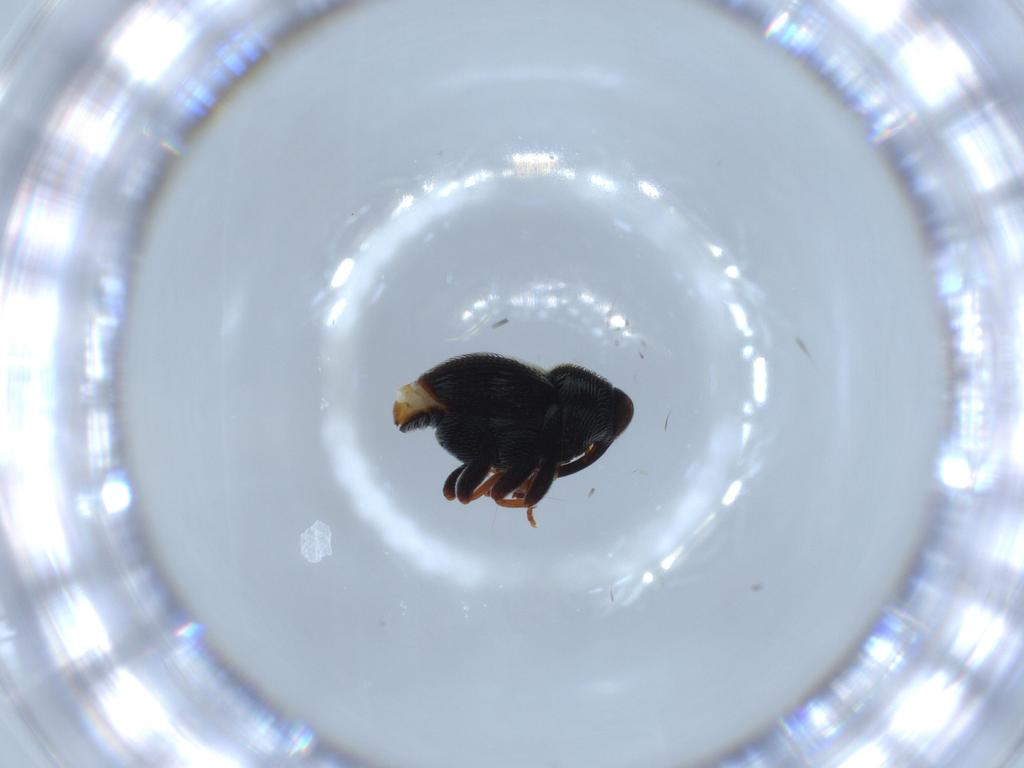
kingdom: Animalia
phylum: Arthropoda
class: Insecta
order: Coleoptera
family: Curculionidae
